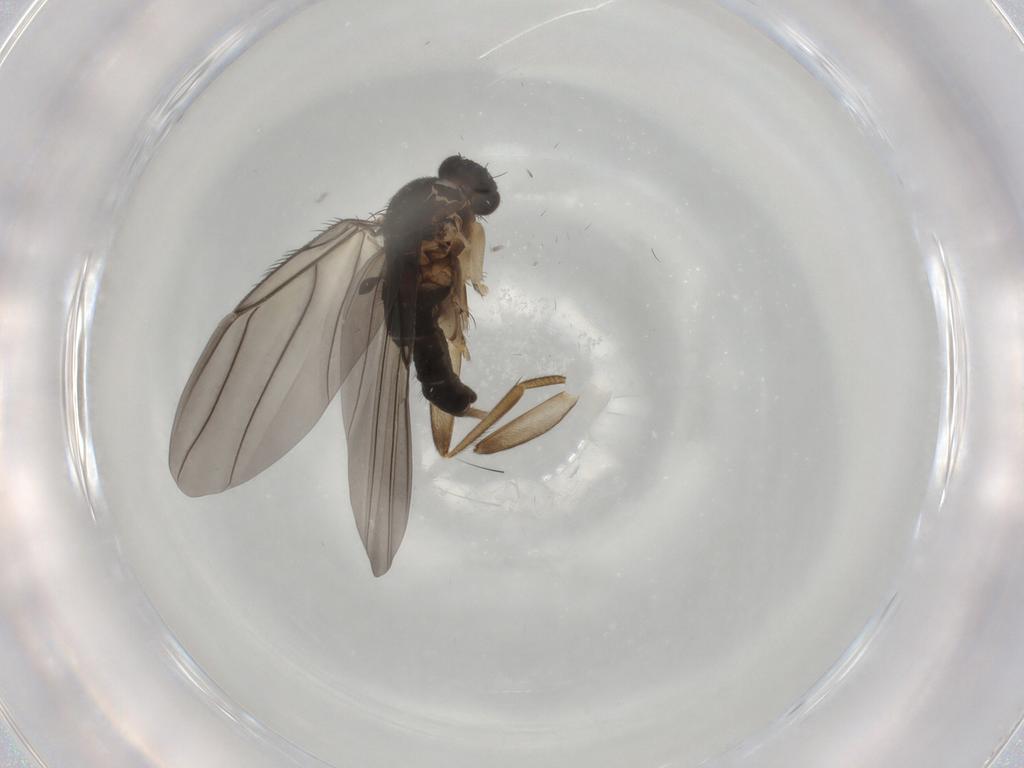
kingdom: Animalia
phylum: Arthropoda
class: Insecta
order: Diptera
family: Phoridae
